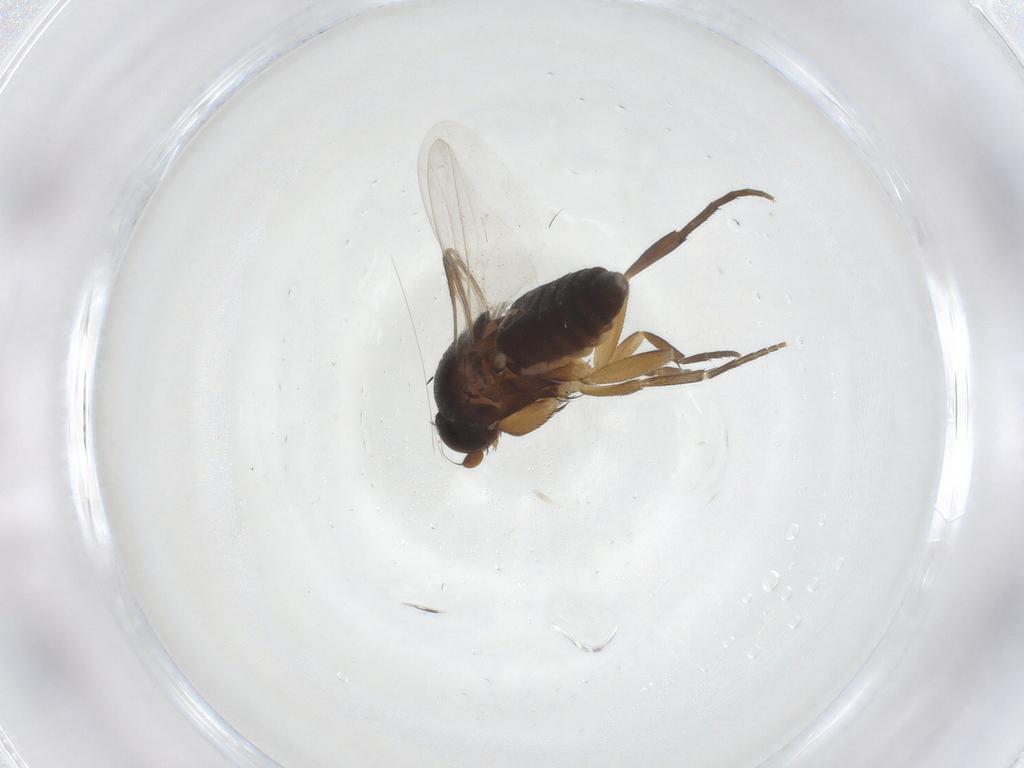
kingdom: Animalia
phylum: Arthropoda
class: Insecta
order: Diptera
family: Phoridae
